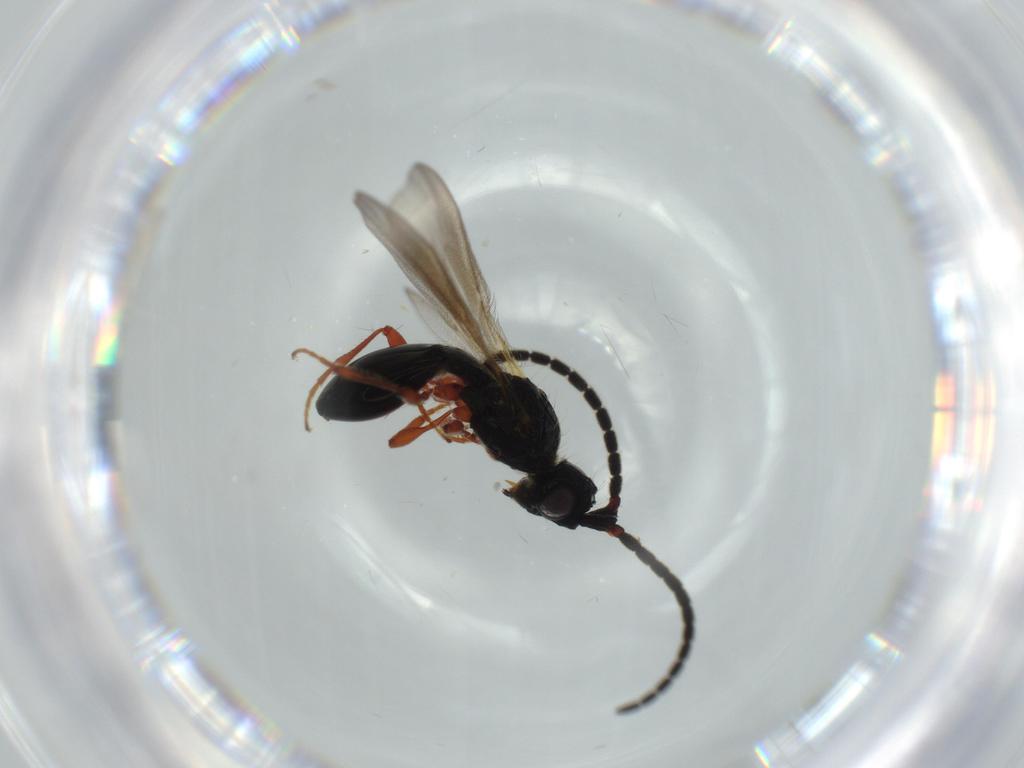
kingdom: Animalia
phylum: Arthropoda
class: Insecta
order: Hymenoptera
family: Diapriidae
